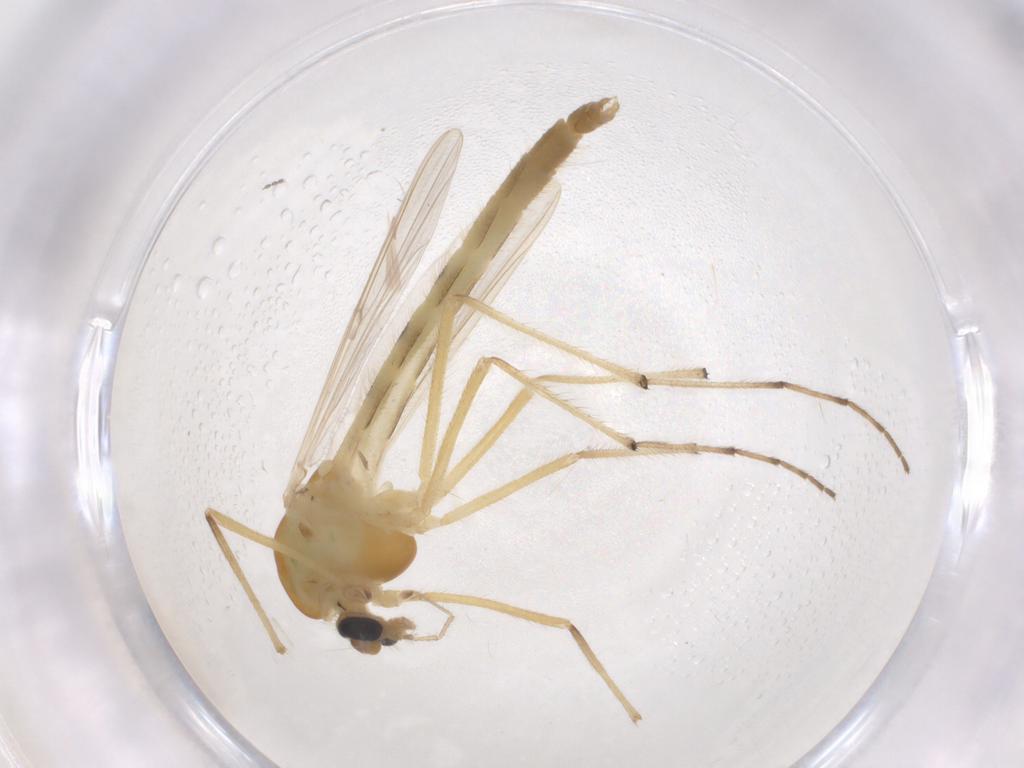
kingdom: Animalia
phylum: Arthropoda
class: Insecta
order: Diptera
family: Chironomidae
